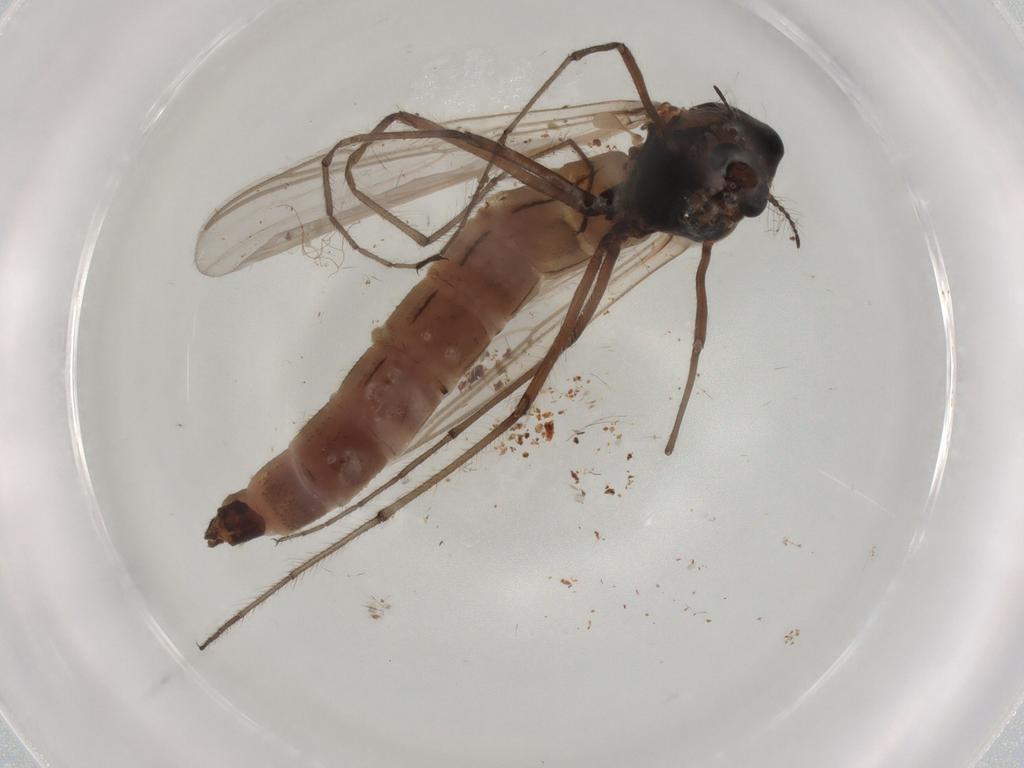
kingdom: Animalia
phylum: Arthropoda
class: Insecta
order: Diptera
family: Chironomidae
